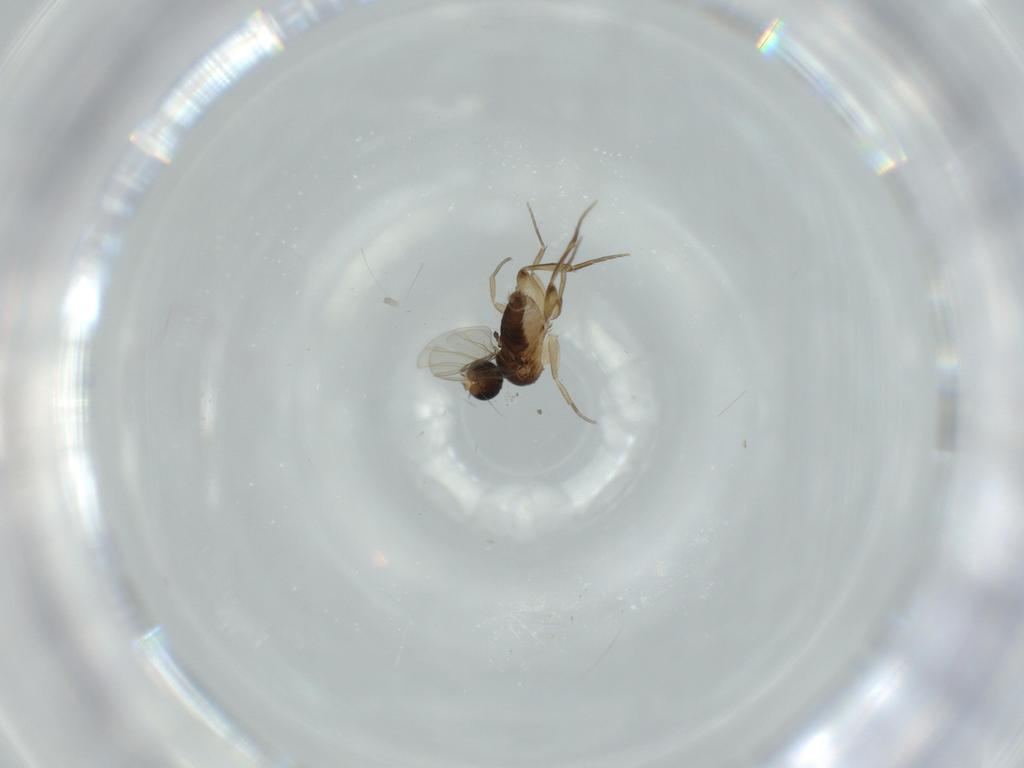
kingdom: Animalia
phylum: Arthropoda
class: Insecta
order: Diptera
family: Phoridae
